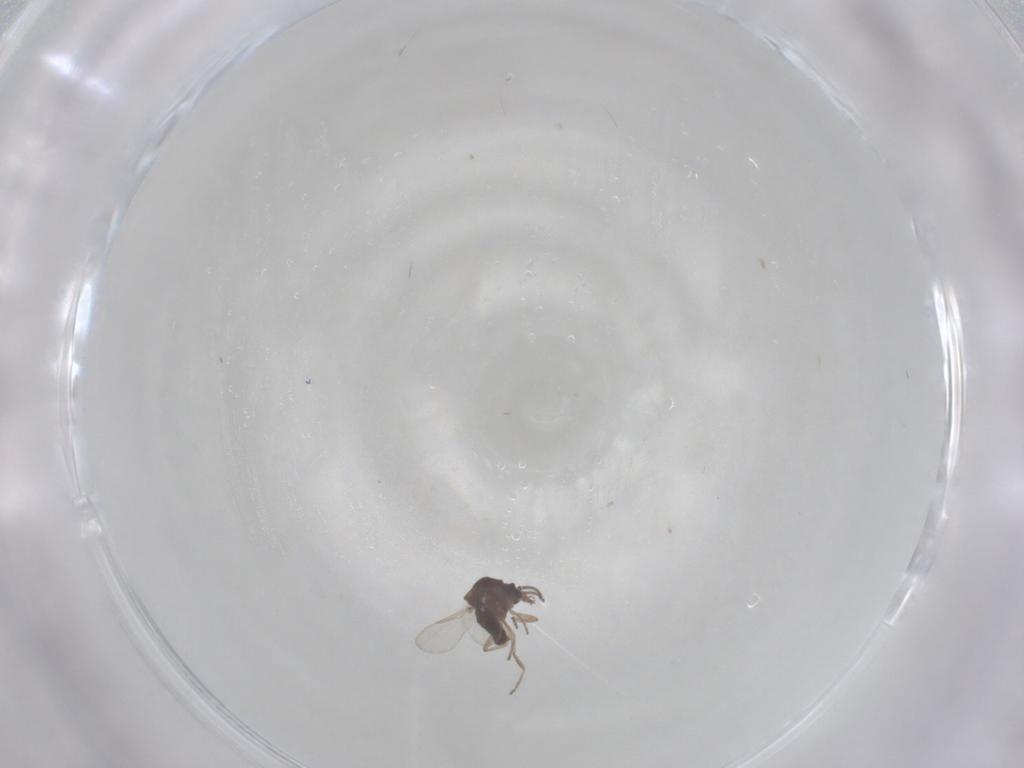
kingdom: Animalia
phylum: Arthropoda
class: Insecta
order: Diptera
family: Ceratopogonidae
